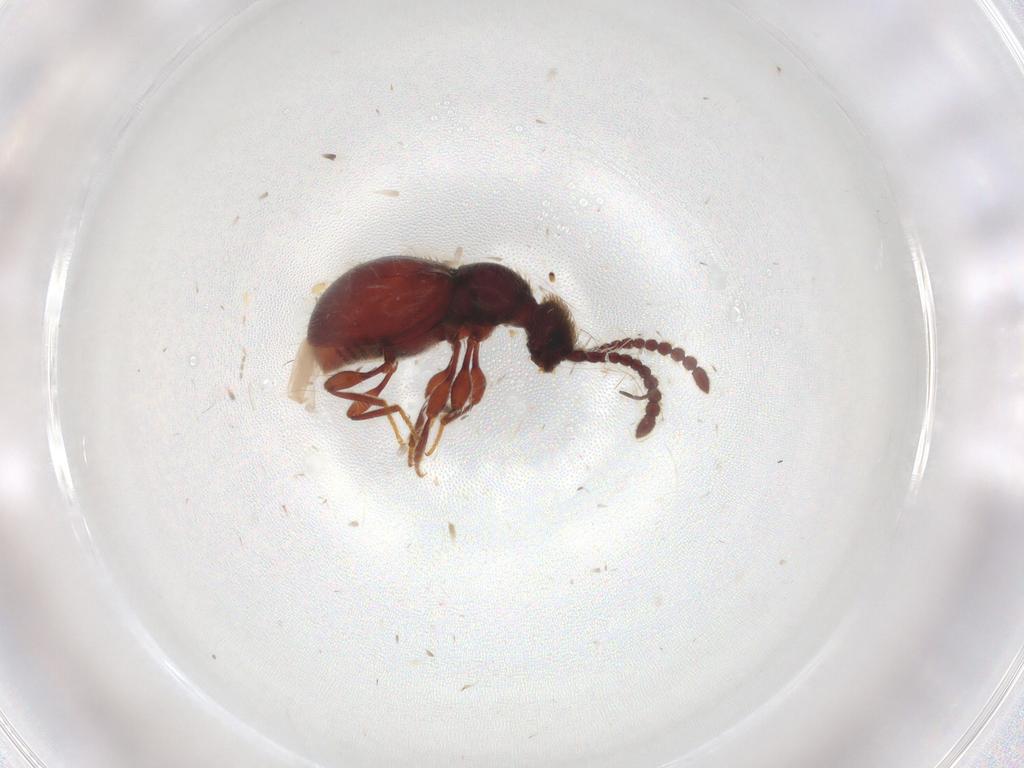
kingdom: Animalia
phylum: Arthropoda
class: Insecta
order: Coleoptera
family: Staphylinidae
